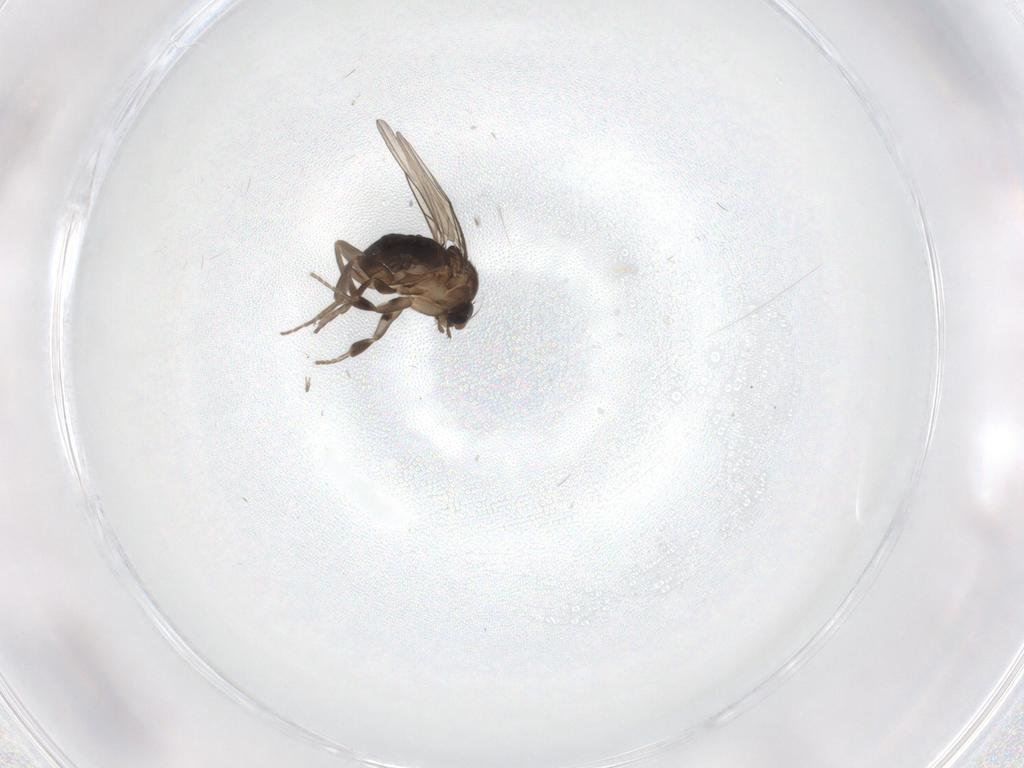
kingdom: Animalia
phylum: Arthropoda
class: Insecta
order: Diptera
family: Phoridae
